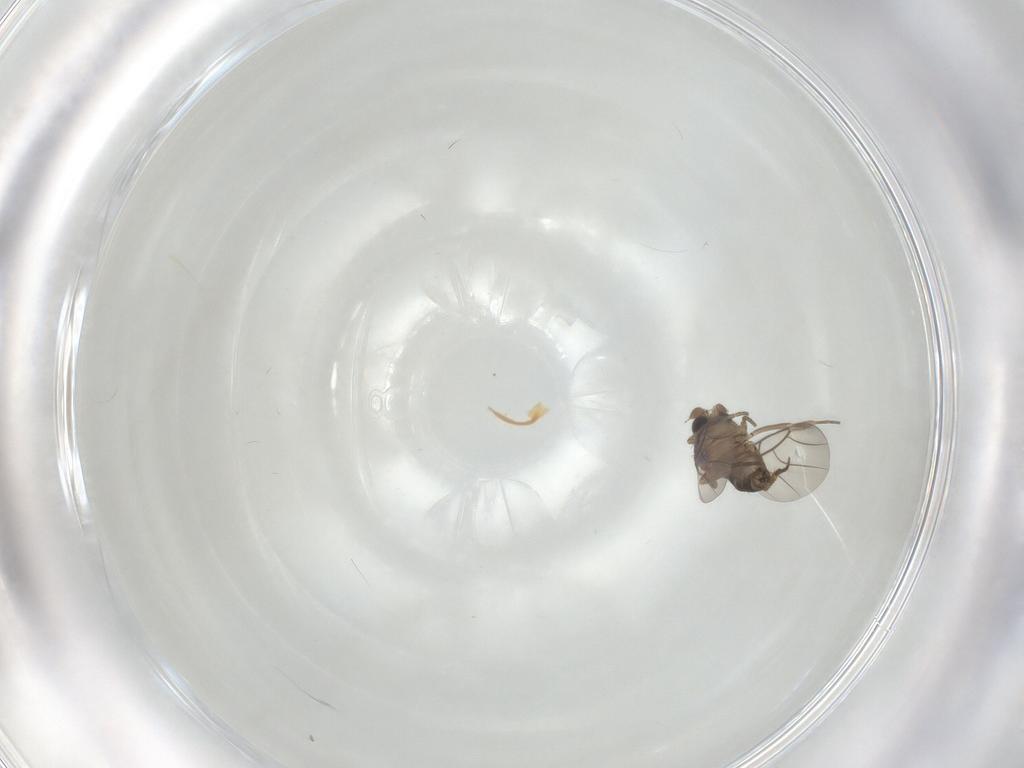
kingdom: Animalia
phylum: Arthropoda
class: Insecta
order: Diptera
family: Phoridae
